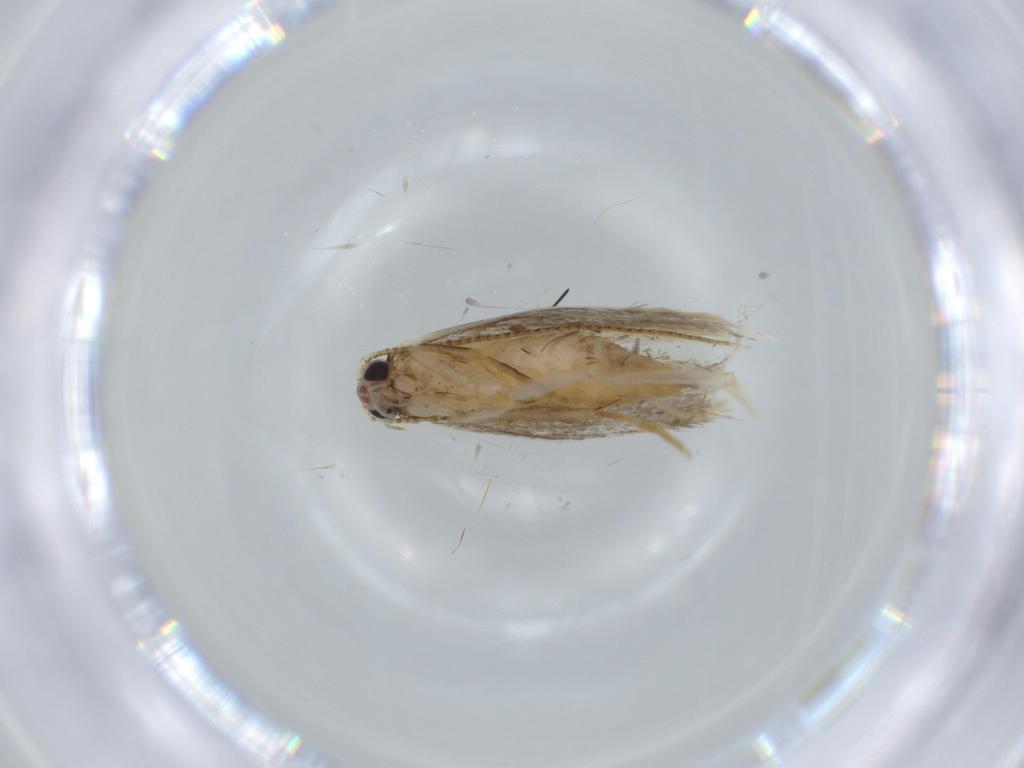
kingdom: Animalia
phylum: Arthropoda
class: Insecta
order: Lepidoptera
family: Tineidae
